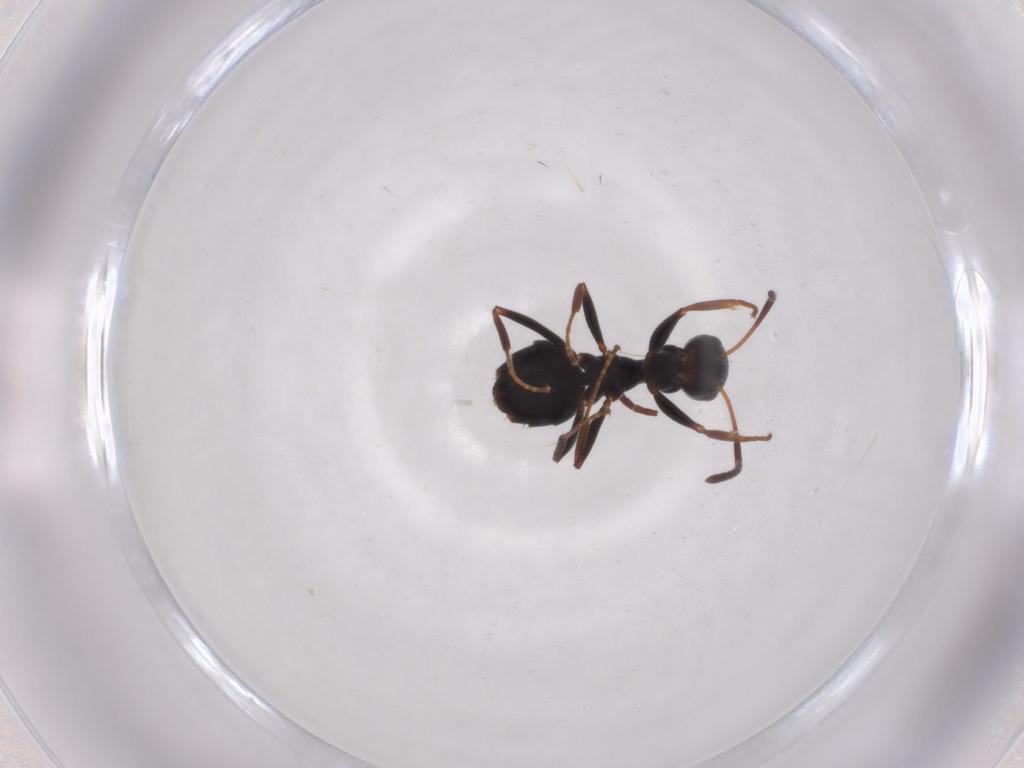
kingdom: Animalia
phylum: Arthropoda
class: Insecta
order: Hymenoptera
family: Formicidae
